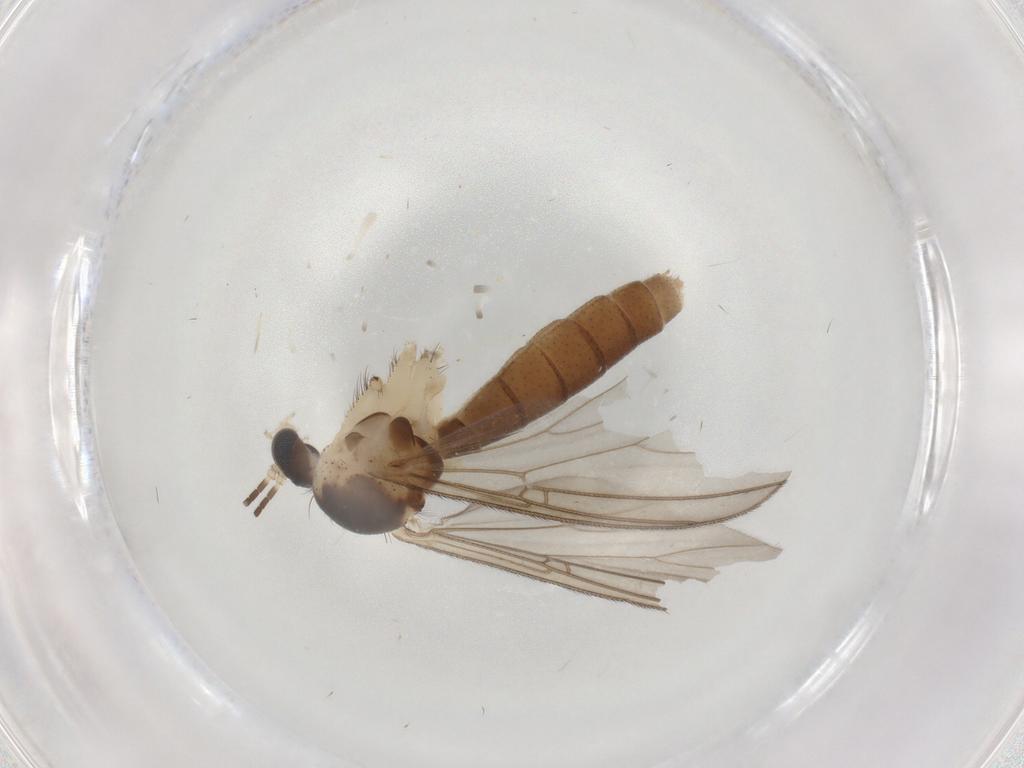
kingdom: Animalia
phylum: Arthropoda
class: Insecta
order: Diptera
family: Mycetophilidae
